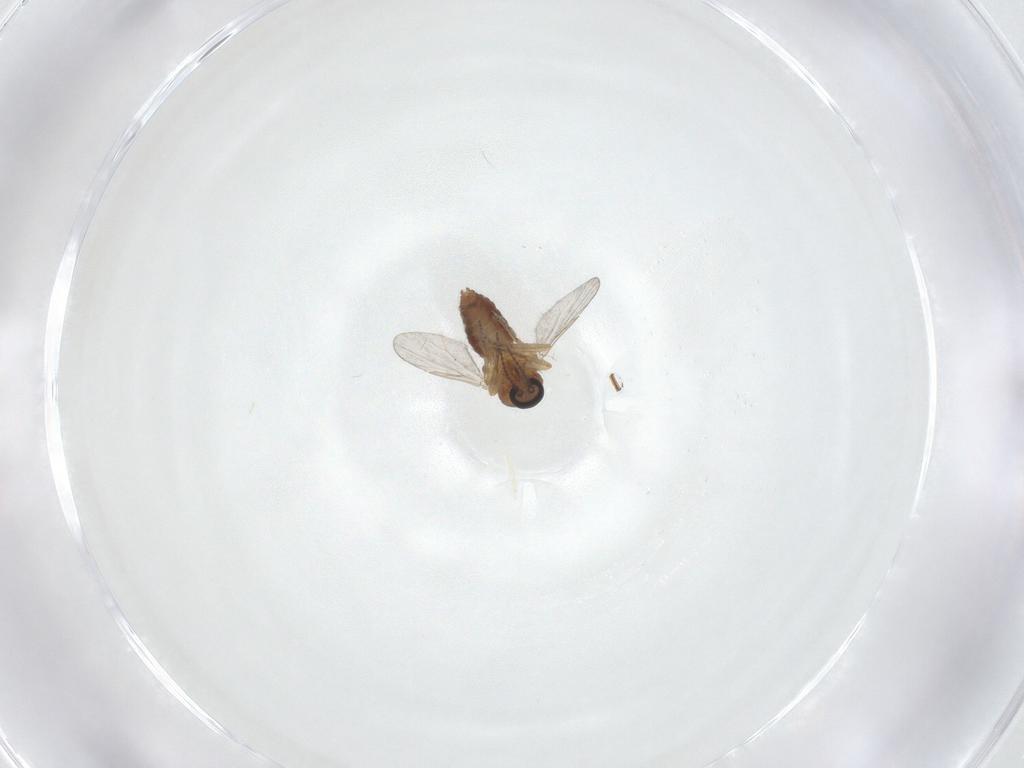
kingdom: Animalia
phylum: Arthropoda
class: Insecta
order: Diptera
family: Ceratopogonidae
